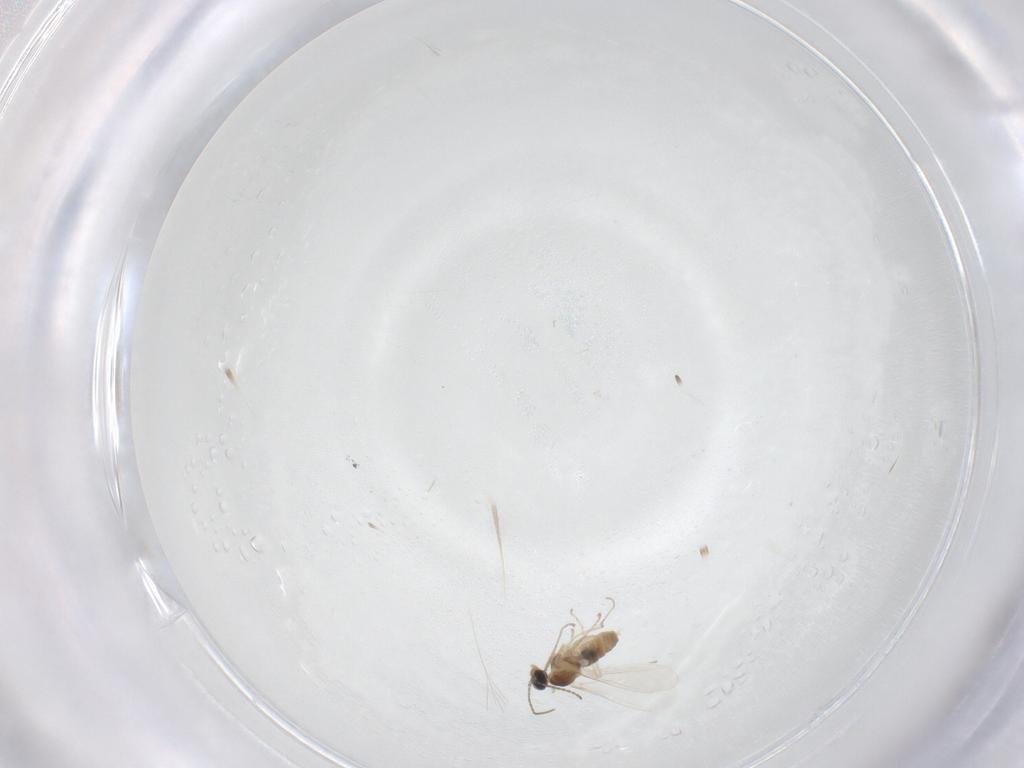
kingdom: Animalia
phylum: Arthropoda
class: Insecta
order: Diptera
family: Cecidomyiidae
